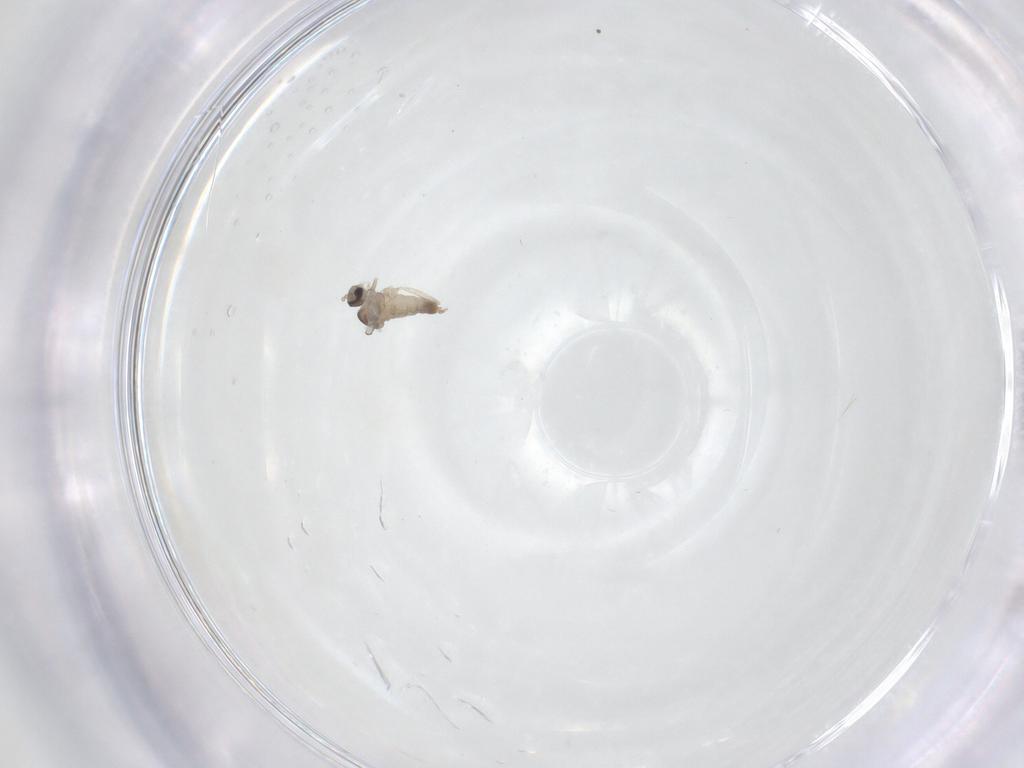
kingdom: Animalia
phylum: Arthropoda
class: Insecta
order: Diptera
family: Cecidomyiidae
